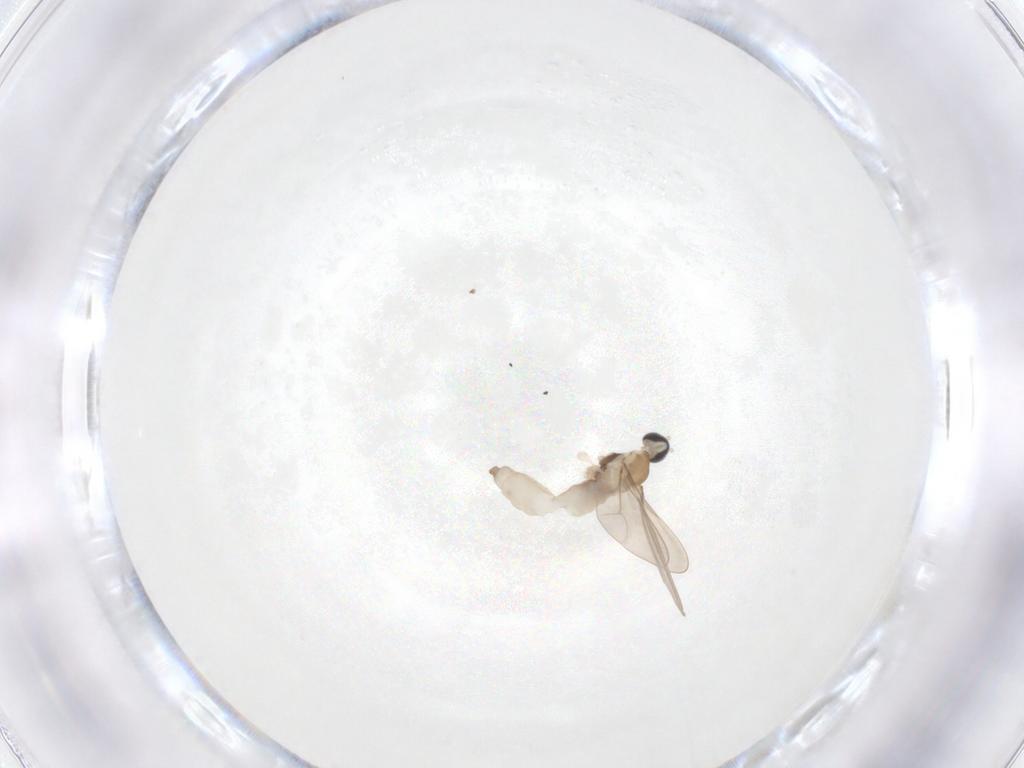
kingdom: Animalia
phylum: Arthropoda
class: Insecta
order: Diptera
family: Cecidomyiidae
